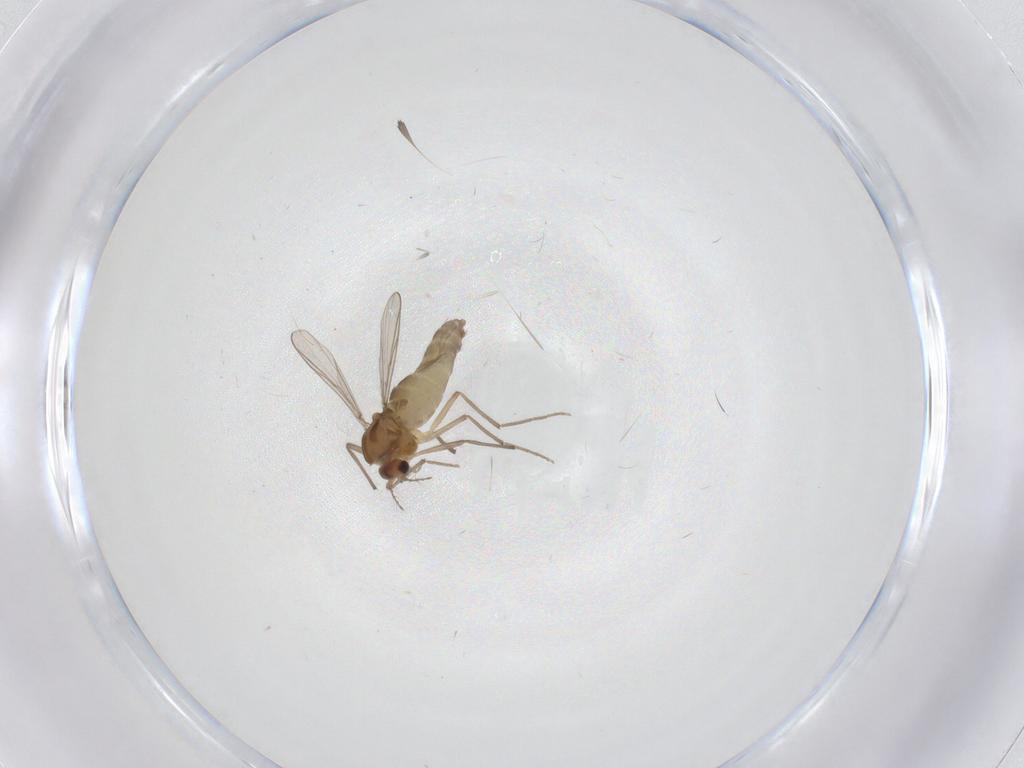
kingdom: Animalia
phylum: Arthropoda
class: Insecta
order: Diptera
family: Chironomidae
